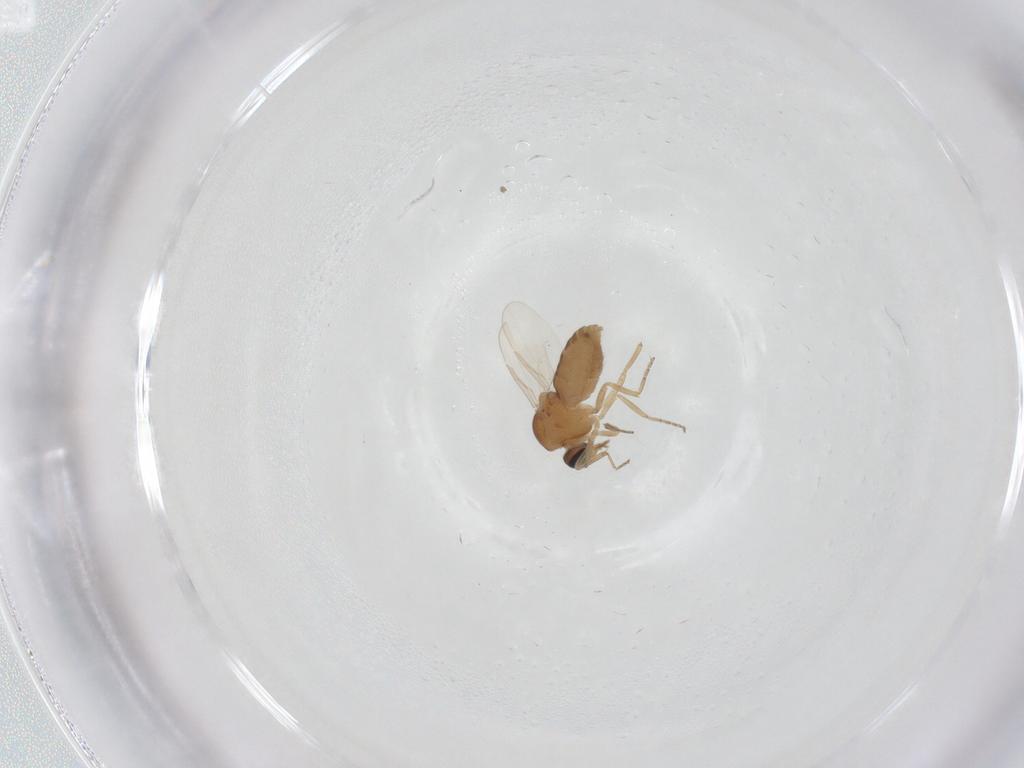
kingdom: Animalia
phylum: Arthropoda
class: Insecta
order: Diptera
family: Ceratopogonidae
